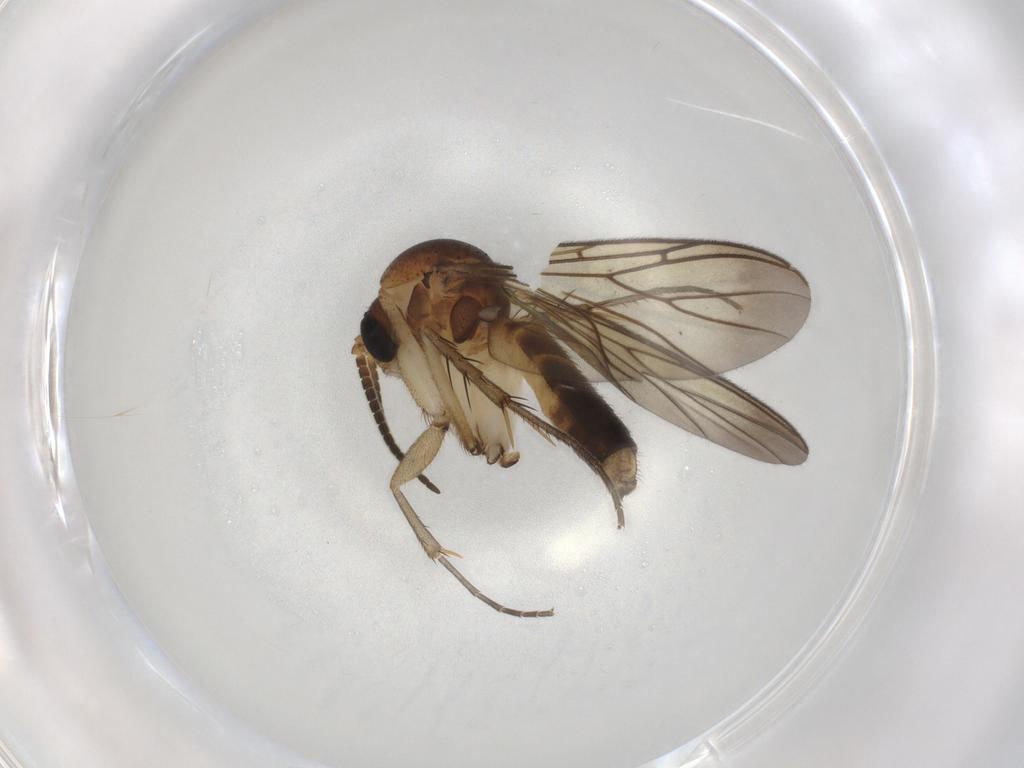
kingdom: Animalia
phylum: Arthropoda
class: Insecta
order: Diptera
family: Mycetophilidae
